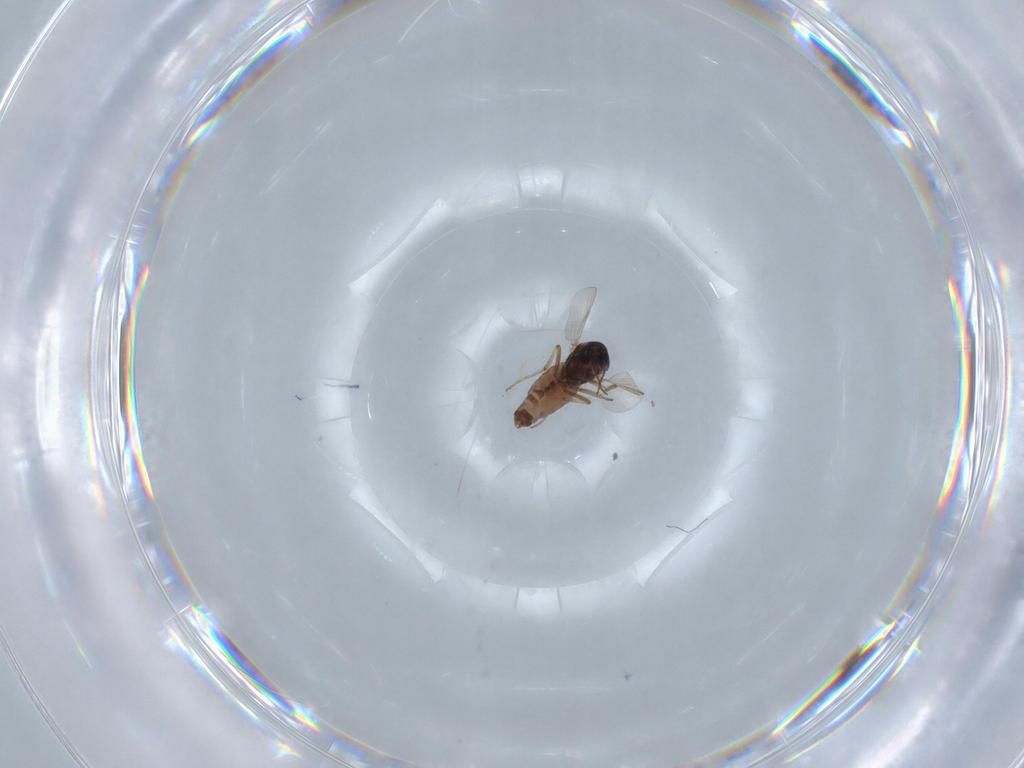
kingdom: Animalia
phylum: Arthropoda
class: Insecta
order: Diptera
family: Ceratopogonidae
